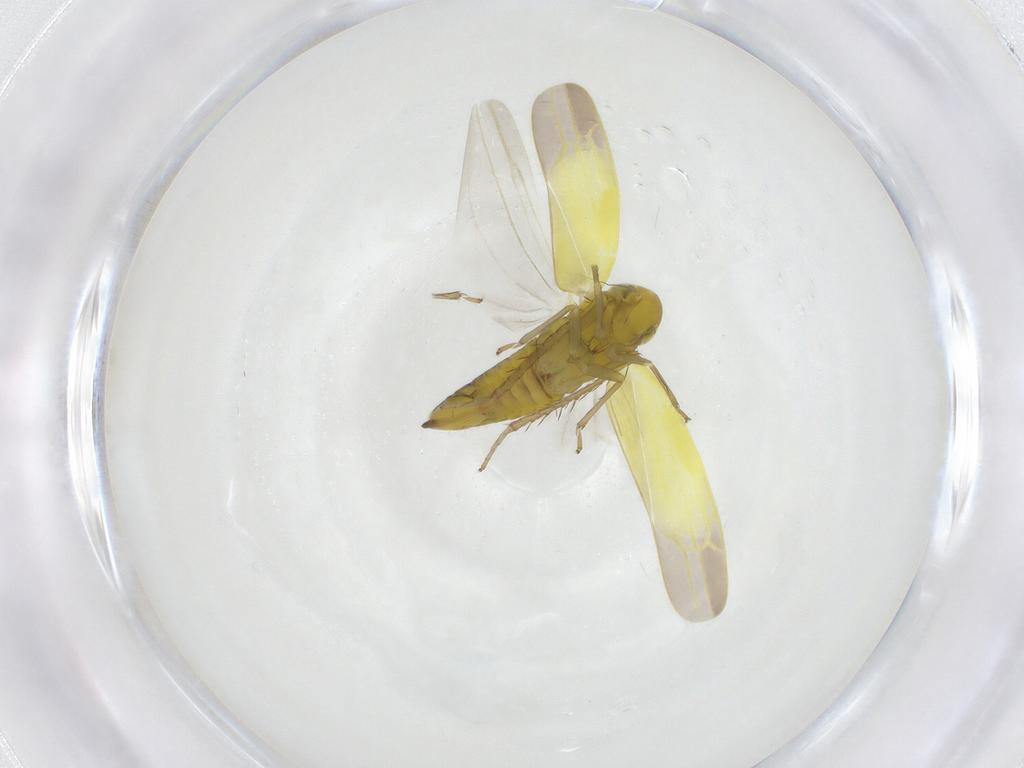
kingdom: Animalia
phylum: Arthropoda
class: Insecta
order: Hemiptera
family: Cicadellidae
